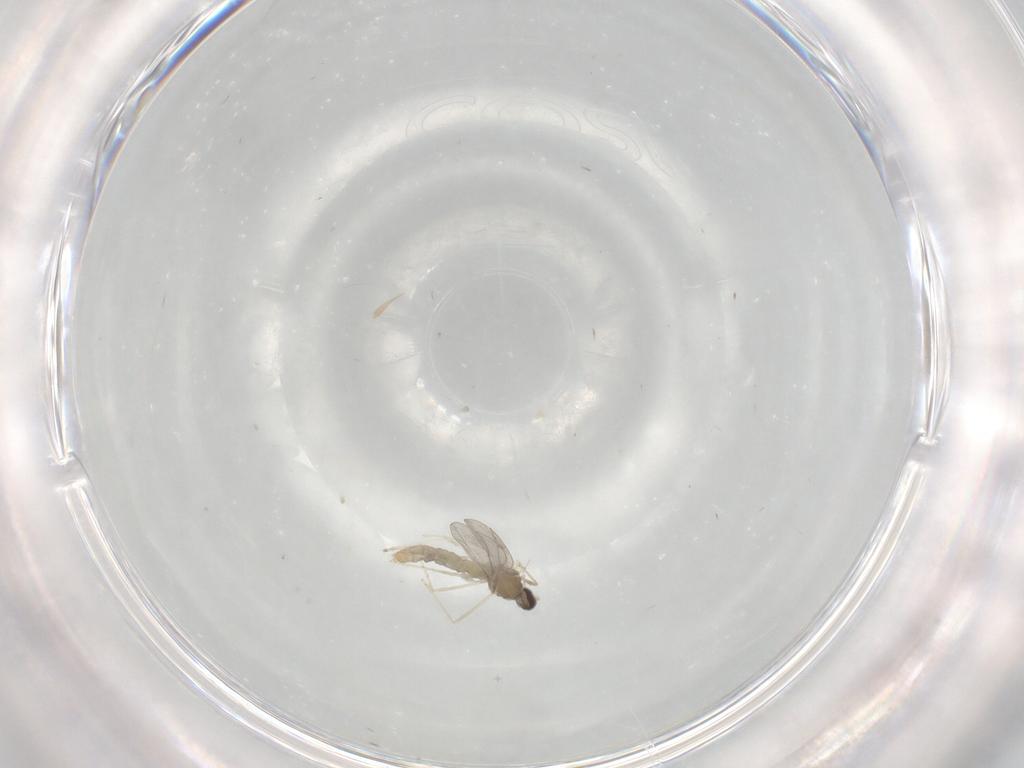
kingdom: Animalia
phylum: Arthropoda
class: Insecta
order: Diptera
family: Cecidomyiidae
